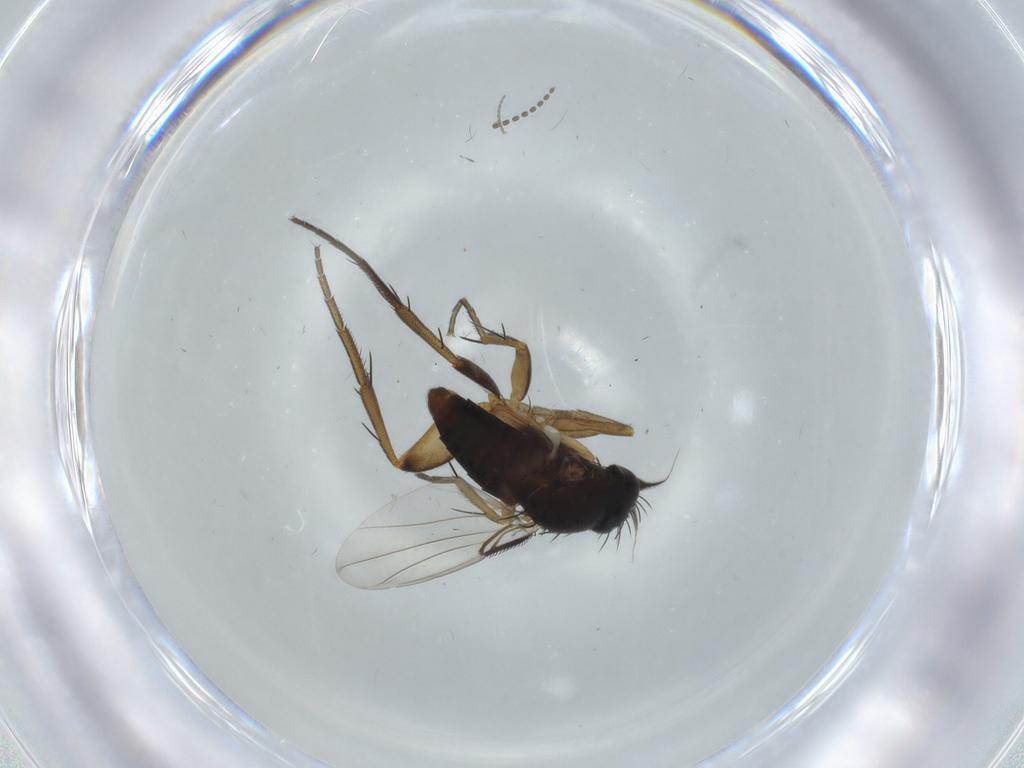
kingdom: Animalia
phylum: Arthropoda
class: Insecta
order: Diptera
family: Phoridae
